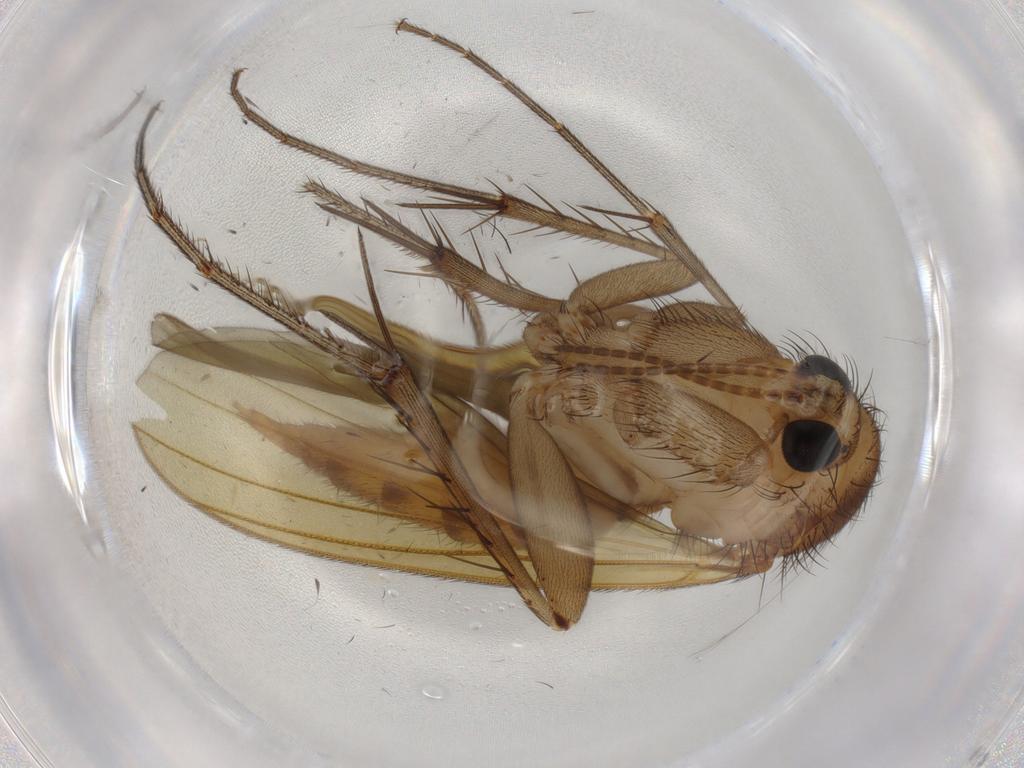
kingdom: Animalia
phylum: Arthropoda
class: Insecta
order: Diptera
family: Mycetophilidae
